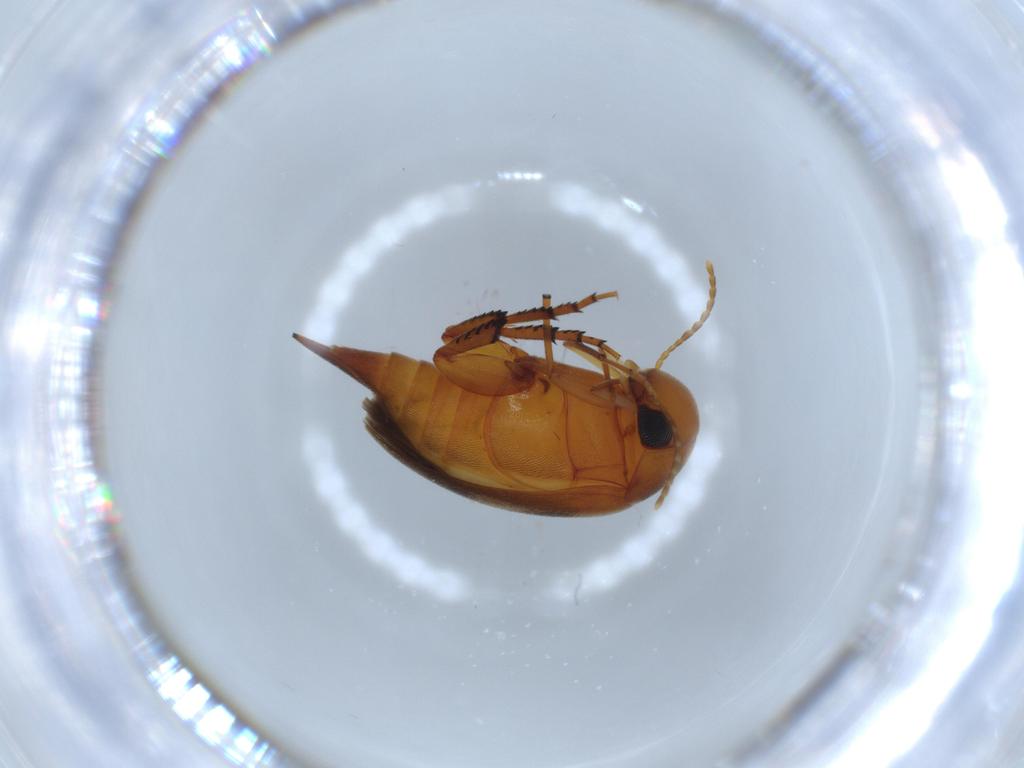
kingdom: Animalia
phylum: Arthropoda
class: Insecta
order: Coleoptera
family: Mordellidae
